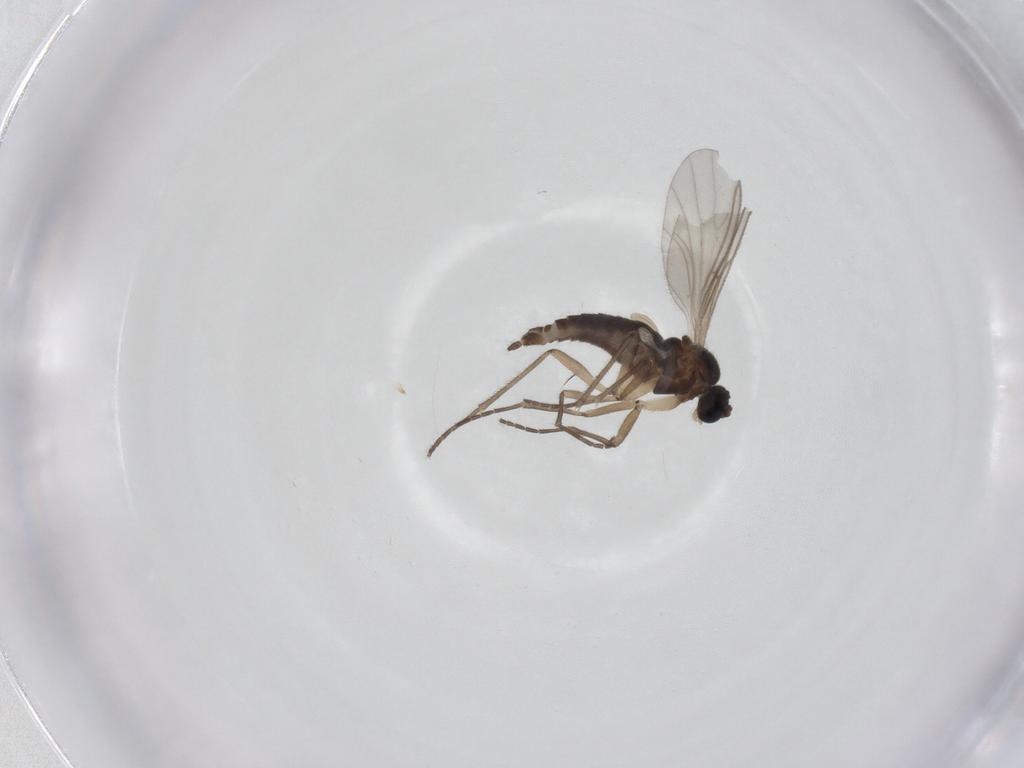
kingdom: Animalia
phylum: Arthropoda
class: Insecta
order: Diptera
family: Sciaridae
